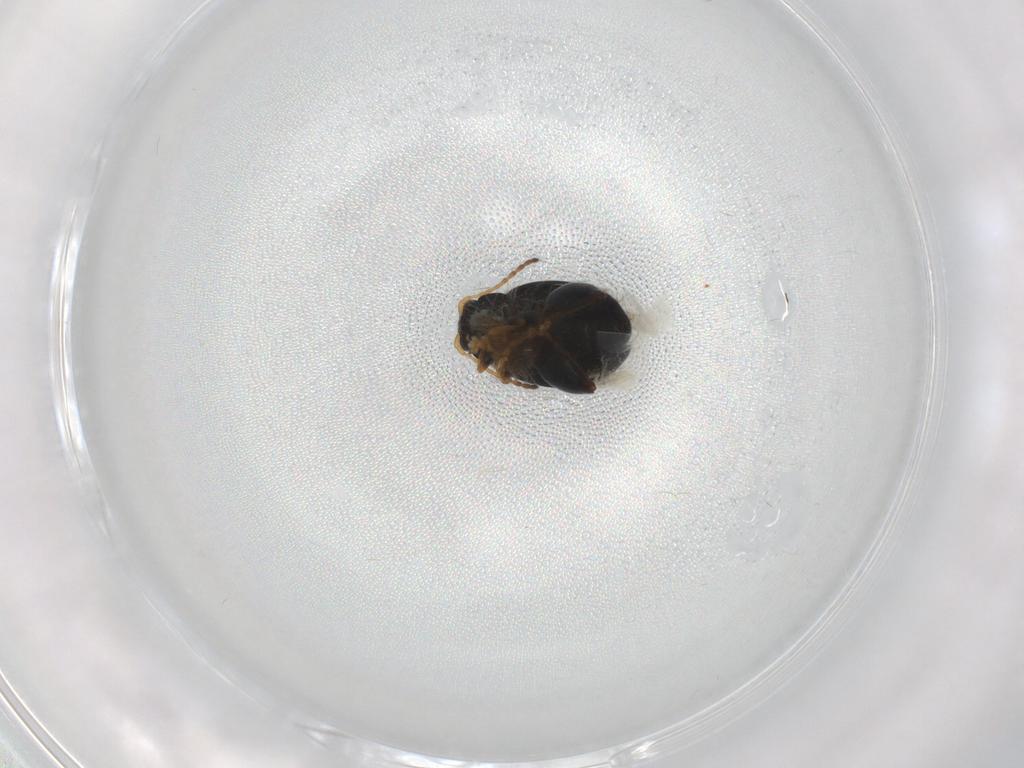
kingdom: Animalia
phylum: Arthropoda
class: Insecta
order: Coleoptera
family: Chrysomelidae
